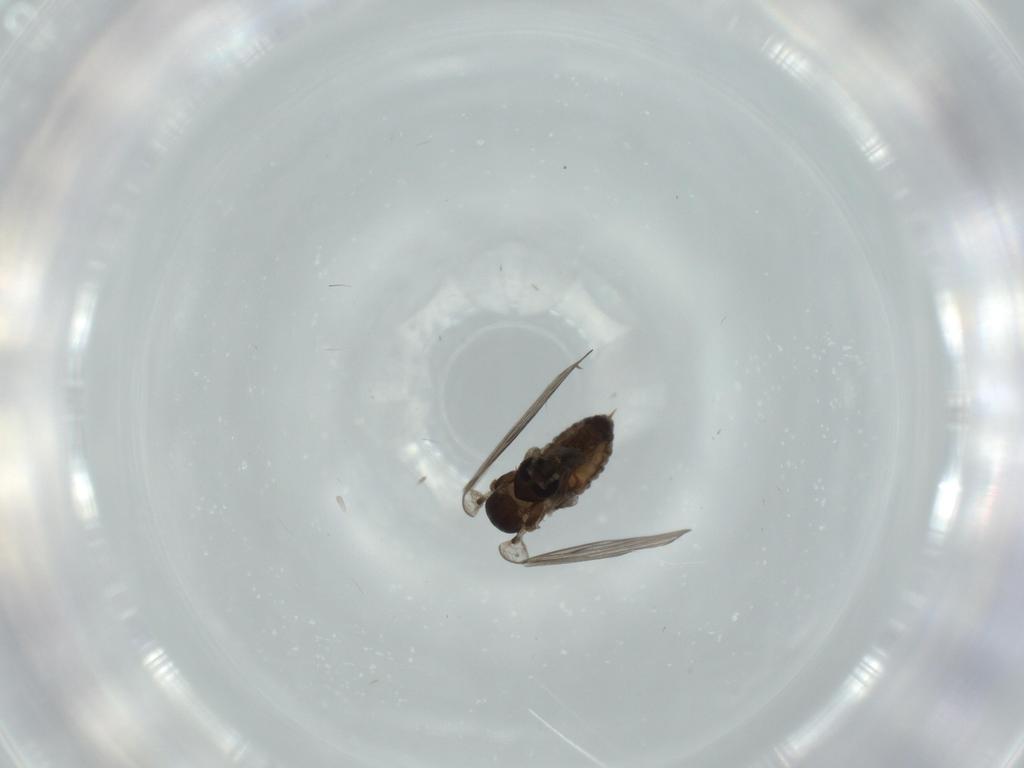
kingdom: Animalia
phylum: Arthropoda
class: Insecta
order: Diptera
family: Psychodidae
